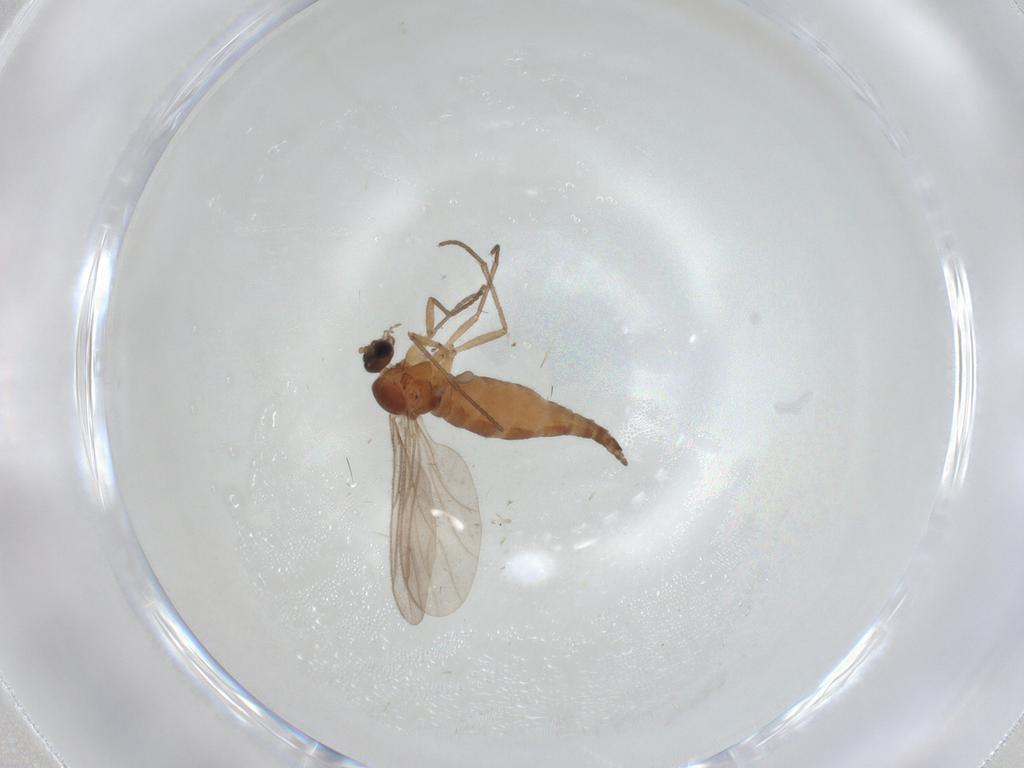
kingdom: Animalia
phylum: Arthropoda
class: Insecta
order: Diptera
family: Sciaridae
